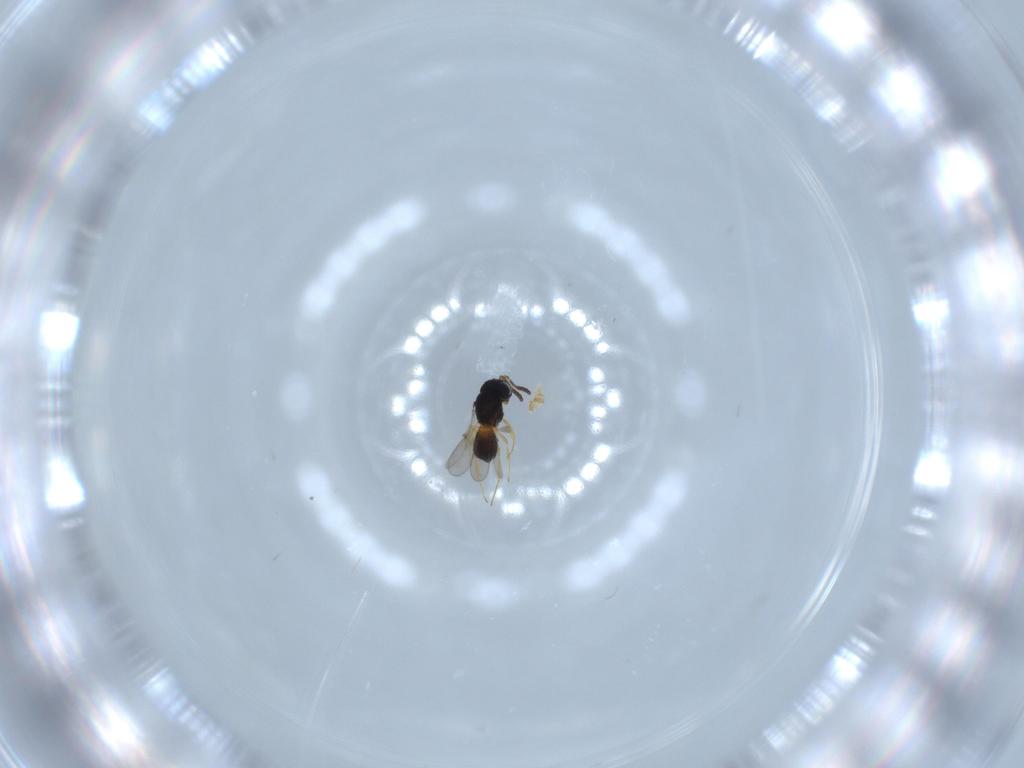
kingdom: Animalia
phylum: Arthropoda
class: Insecta
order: Hymenoptera
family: Scelionidae
